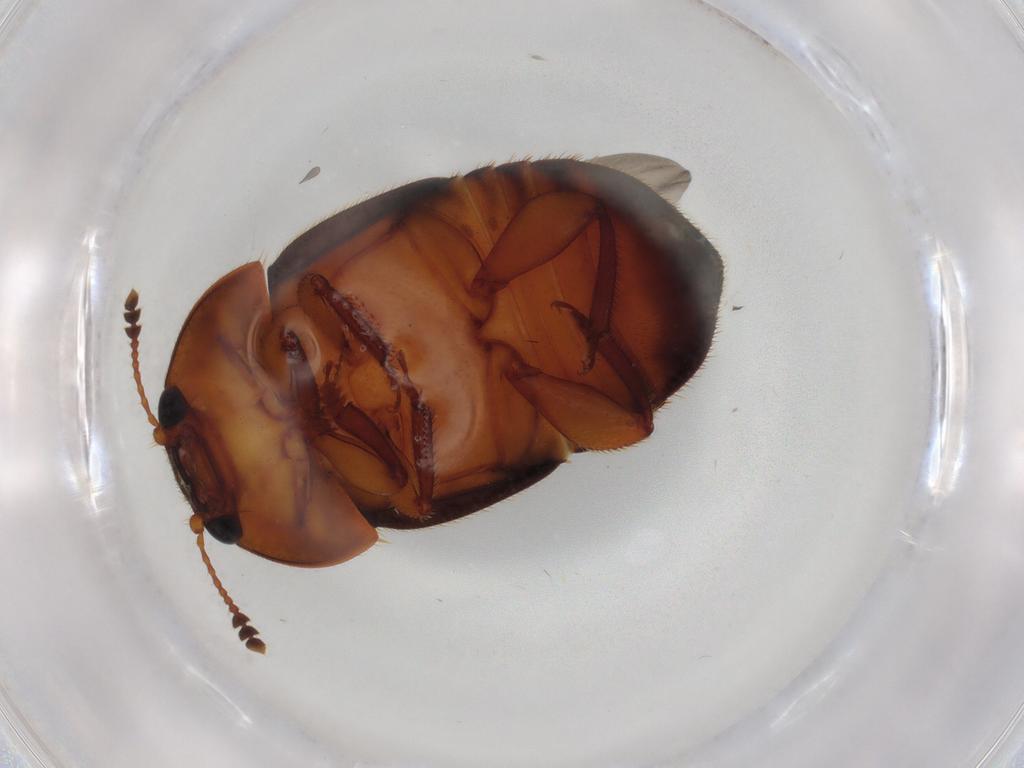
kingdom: Animalia
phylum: Arthropoda
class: Insecta
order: Coleoptera
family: Nitidulidae
